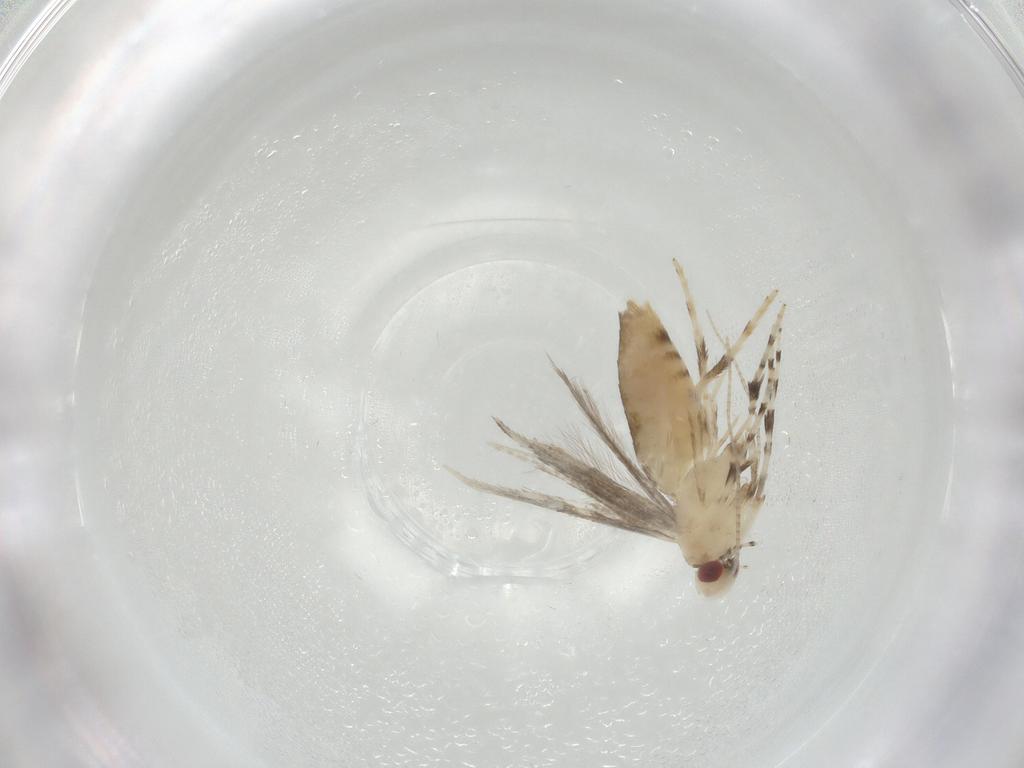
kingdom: Animalia
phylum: Arthropoda
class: Insecta
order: Lepidoptera
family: Gracillariidae
